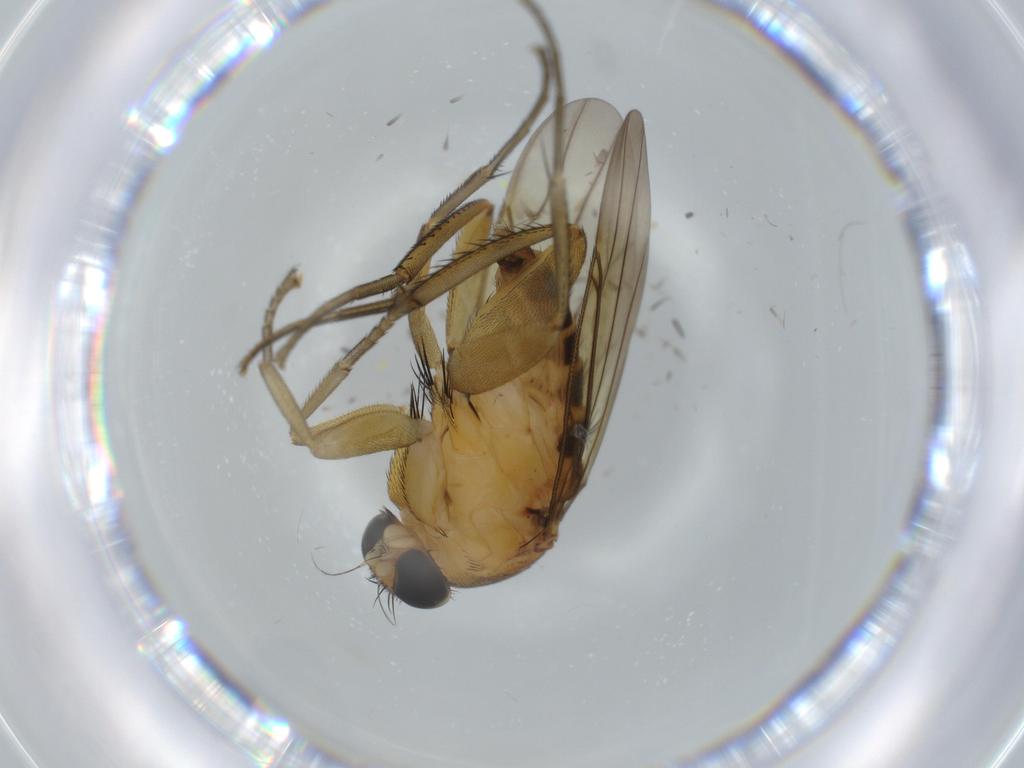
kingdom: Animalia
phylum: Arthropoda
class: Insecta
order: Diptera
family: Phoridae
